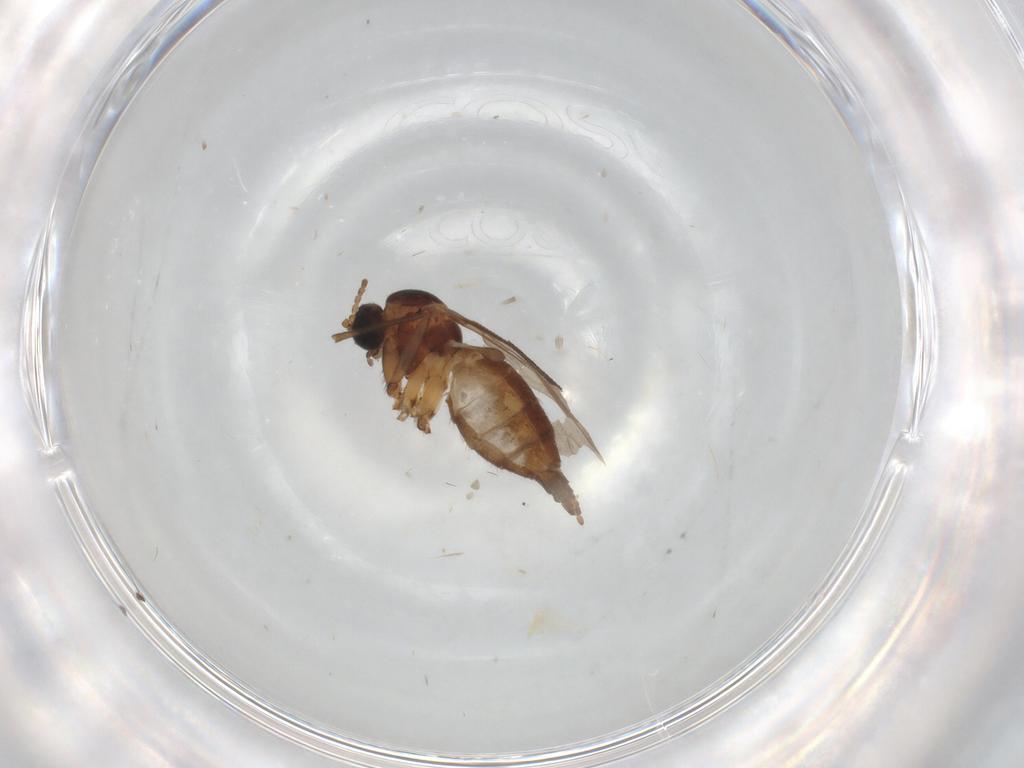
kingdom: Animalia
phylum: Arthropoda
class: Insecta
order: Diptera
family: Sciaridae
